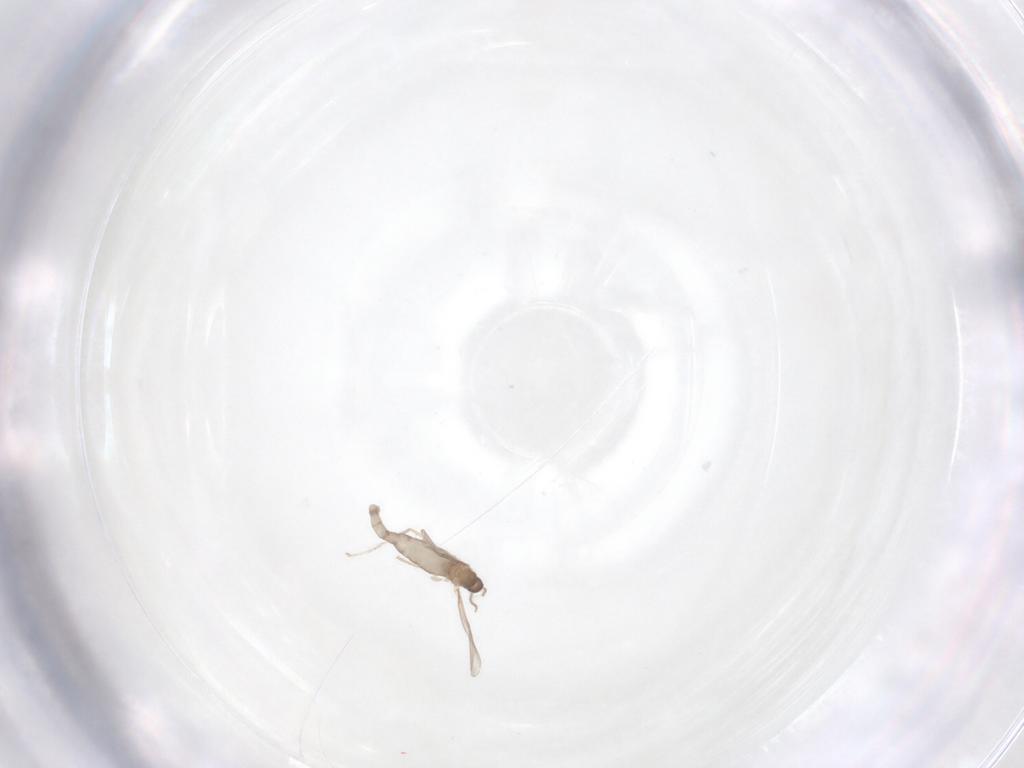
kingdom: Animalia
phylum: Arthropoda
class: Insecta
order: Diptera
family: Cecidomyiidae
